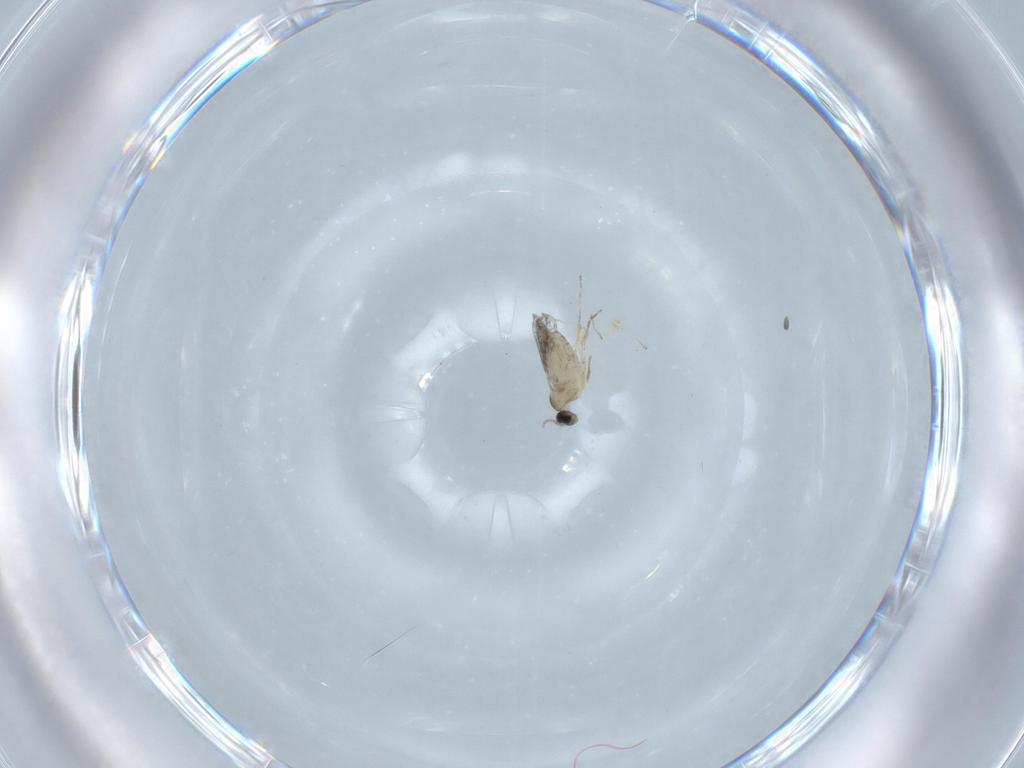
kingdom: Animalia
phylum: Arthropoda
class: Insecta
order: Diptera
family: Cecidomyiidae
